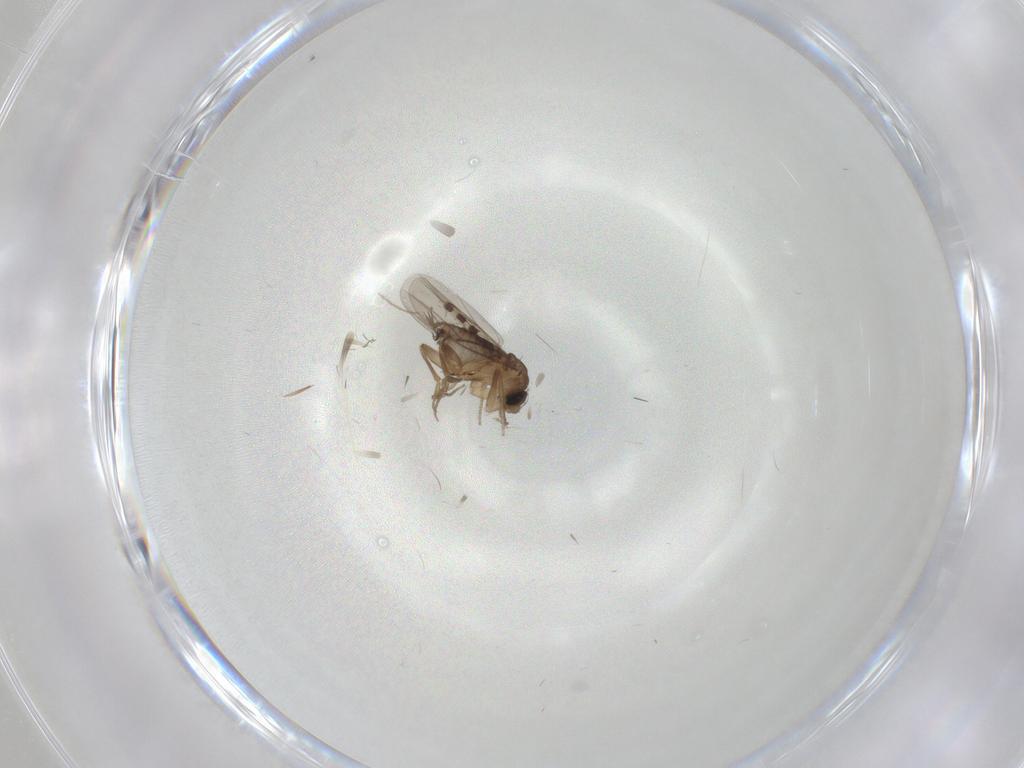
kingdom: Animalia
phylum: Arthropoda
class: Insecta
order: Diptera
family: Cecidomyiidae
